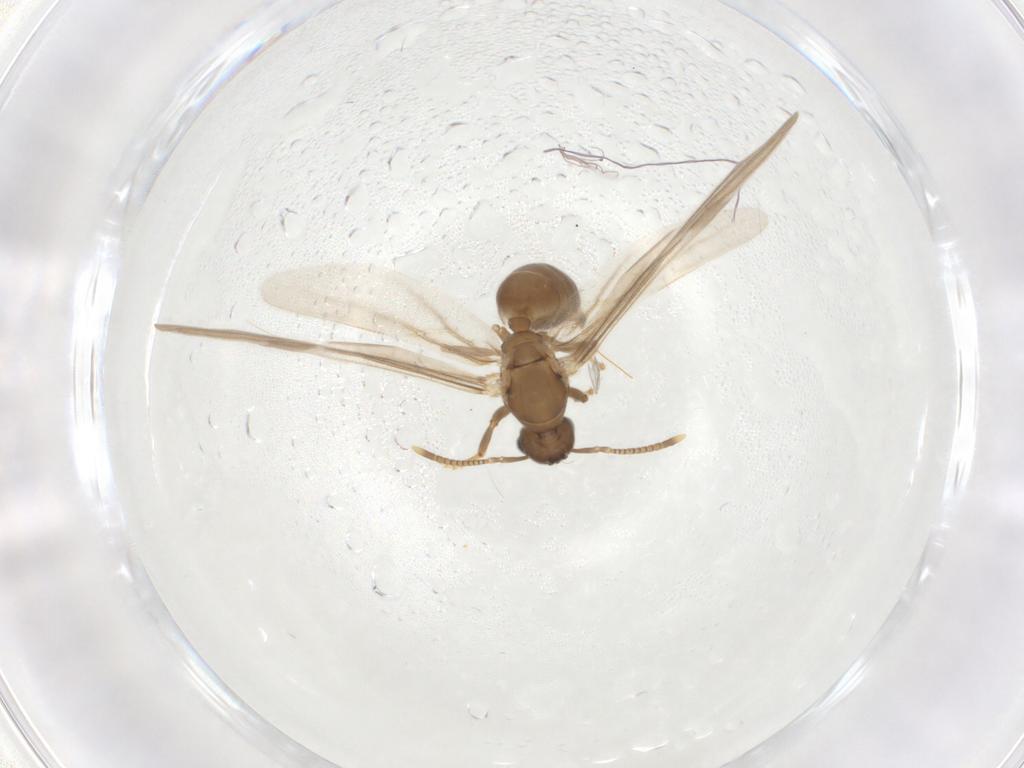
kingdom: Animalia
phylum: Arthropoda
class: Insecta
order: Hymenoptera
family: Formicidae
